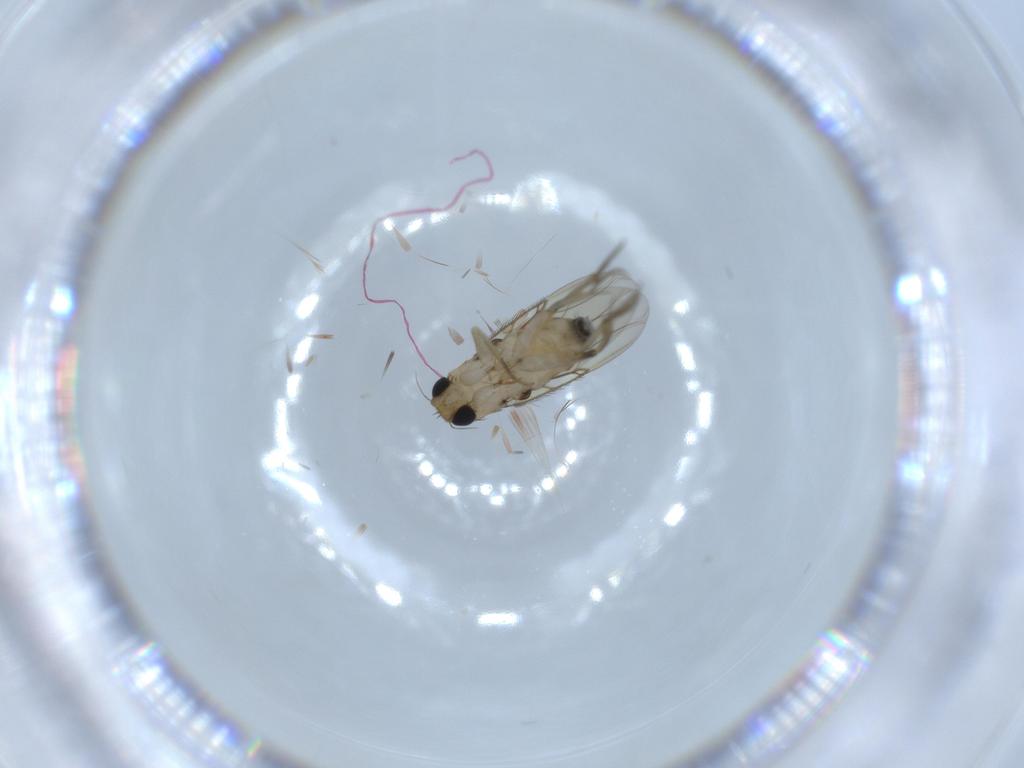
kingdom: Animalia
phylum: Arthropoda
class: Insecta
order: Diptera
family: Phoridae
